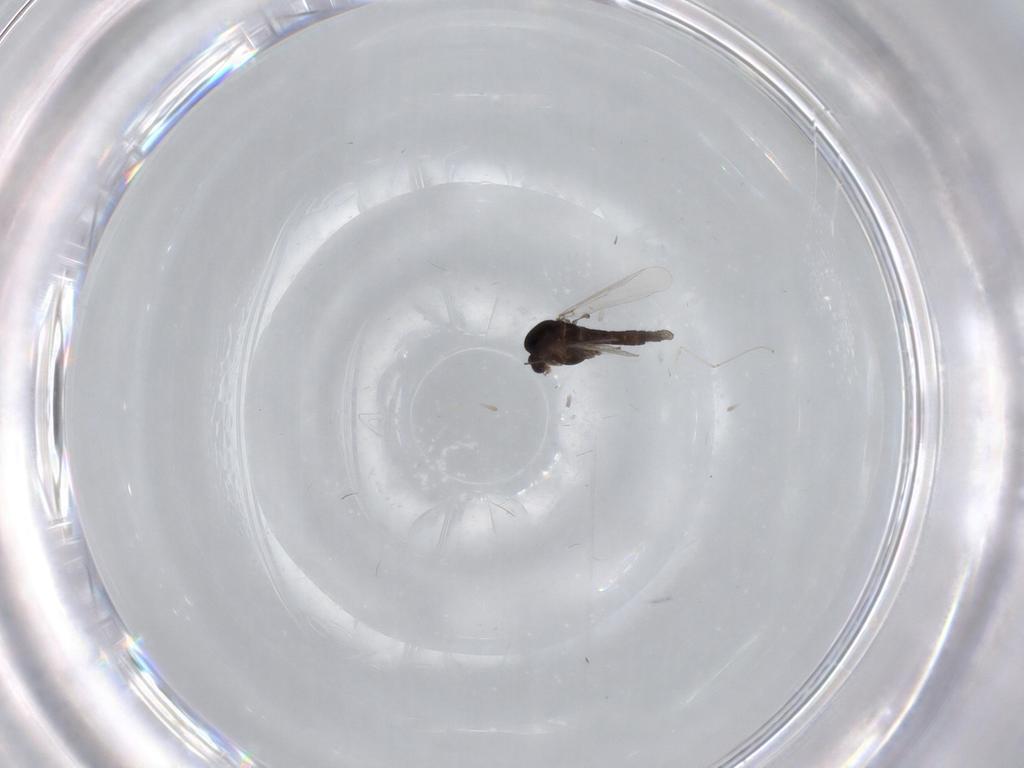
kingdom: Animalia
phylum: Arthropoda
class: Insecta
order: Diptera
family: Chironomidae
